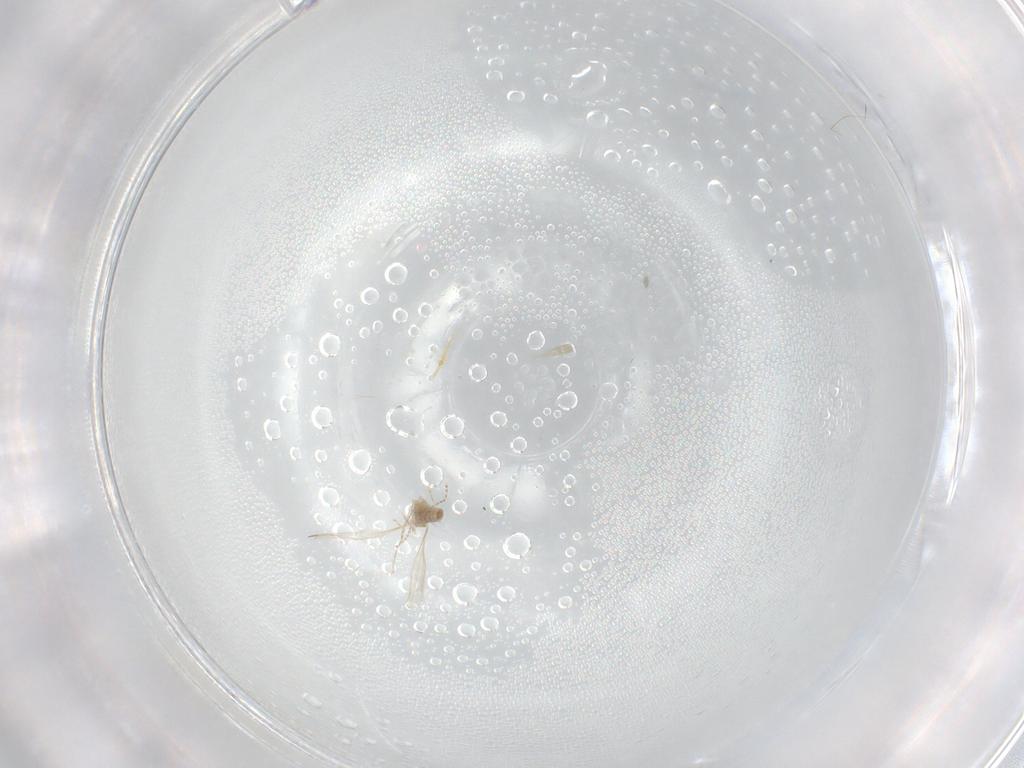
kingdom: Animalia
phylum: Arthropoda
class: Insecta
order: Diptera
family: Cecidomyiidae
